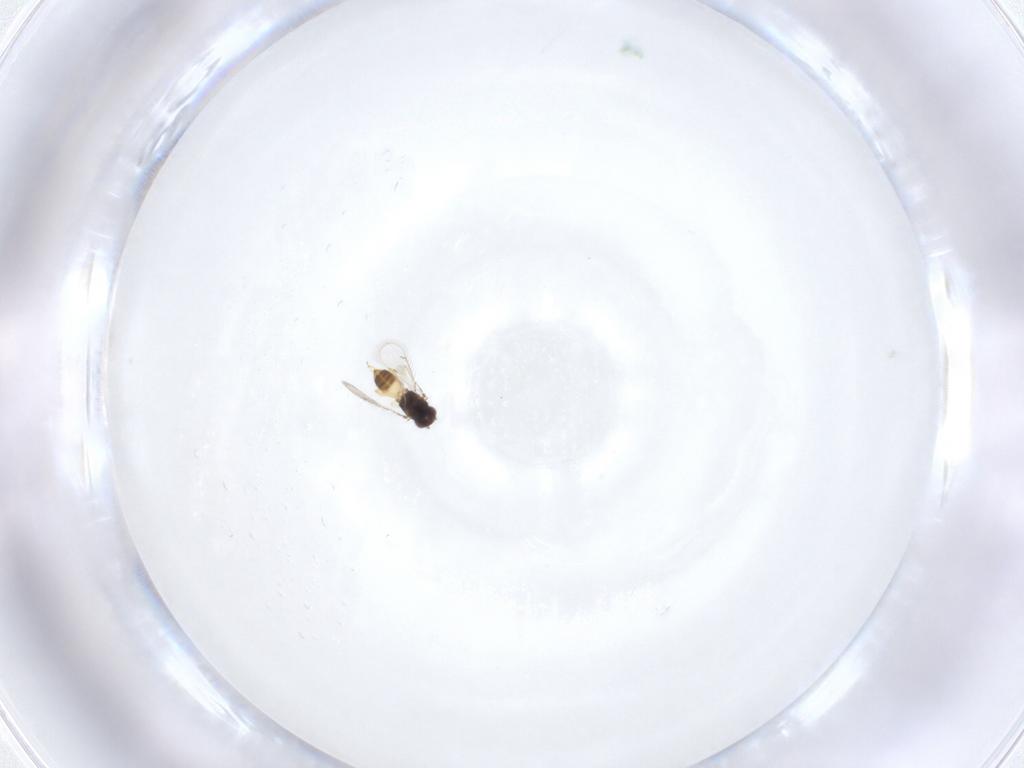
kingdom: Animalia
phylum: Arthropoda
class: Insecta
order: Hymenoptera
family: Eulophidae
